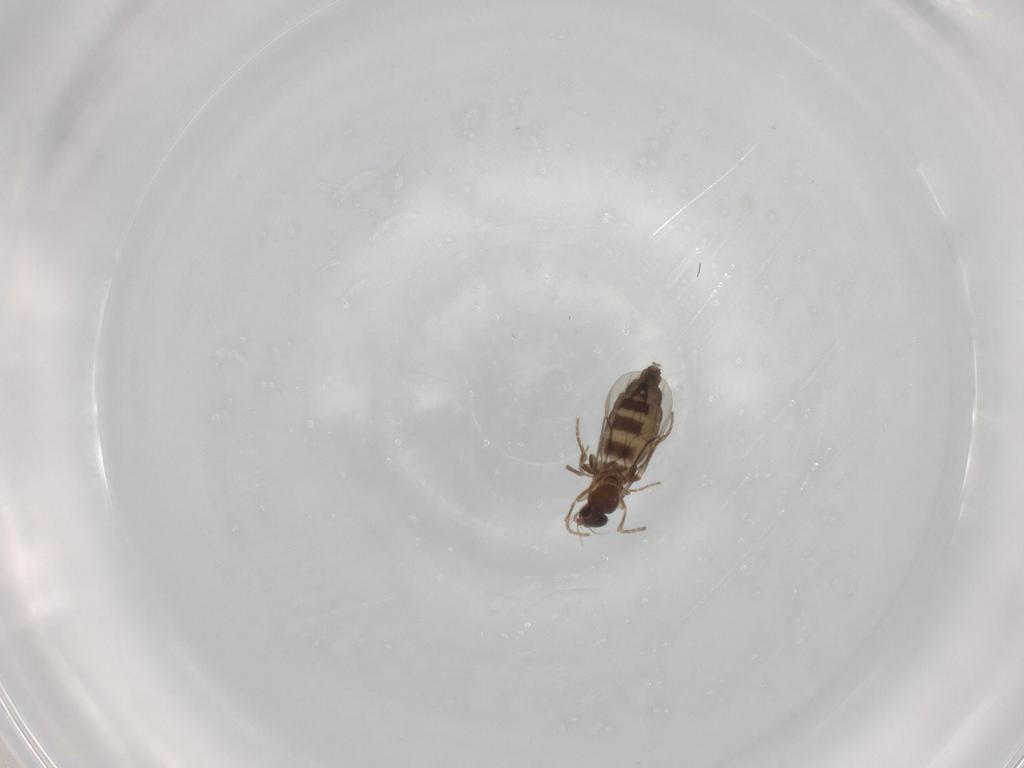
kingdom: Animalia
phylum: Arthropoda
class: Insecta
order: Diptera
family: Phoridae
